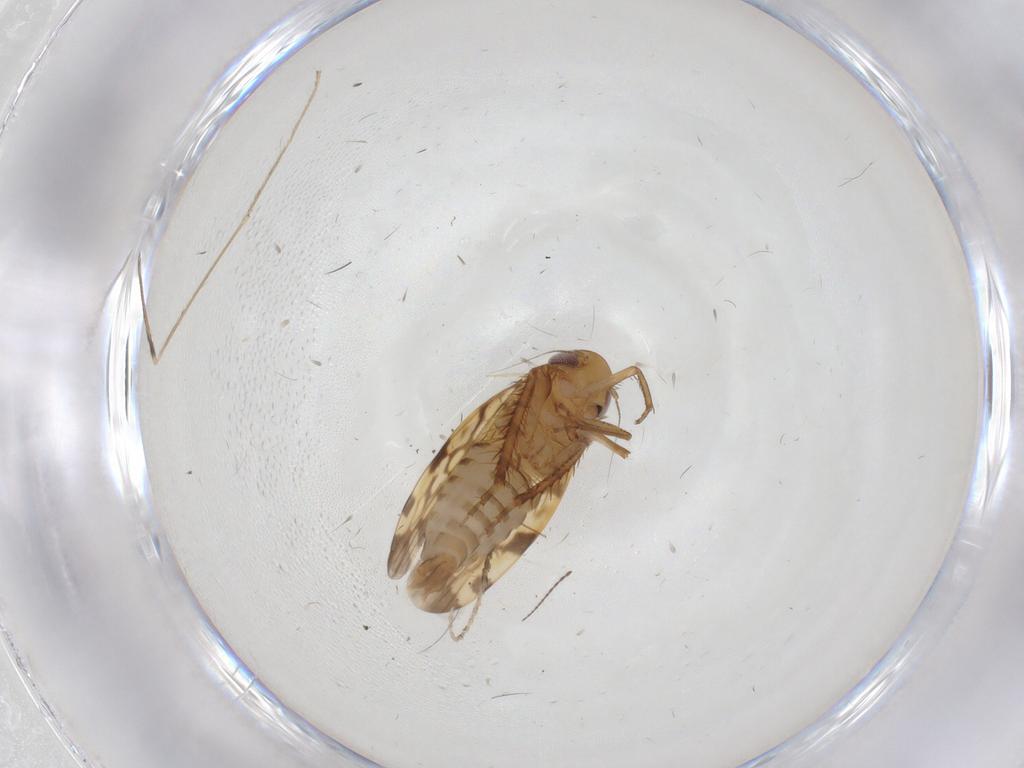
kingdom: Animalia
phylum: Arthropoda
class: Insecta
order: Hemiptera
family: Cicadellidae
